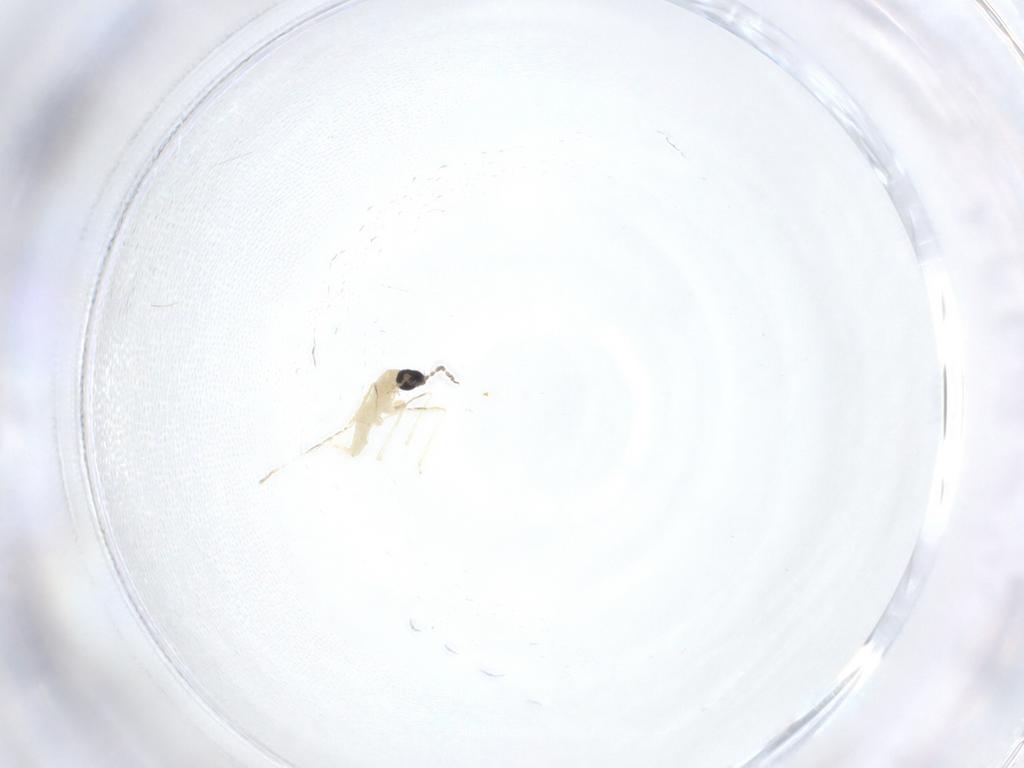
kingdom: Animalia
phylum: Arthropoda
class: Insecta
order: Diptera
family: Cecidomyiidae
